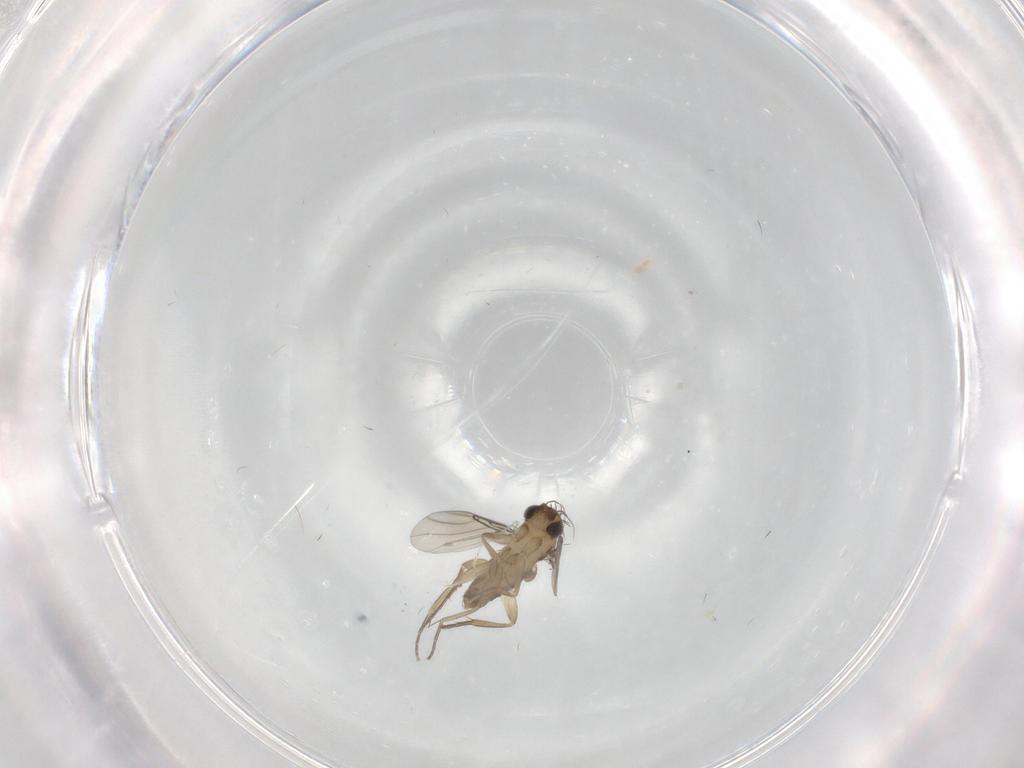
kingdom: Animalia
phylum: Arthropoda
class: Insecta
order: Diptera
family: Phoridae
